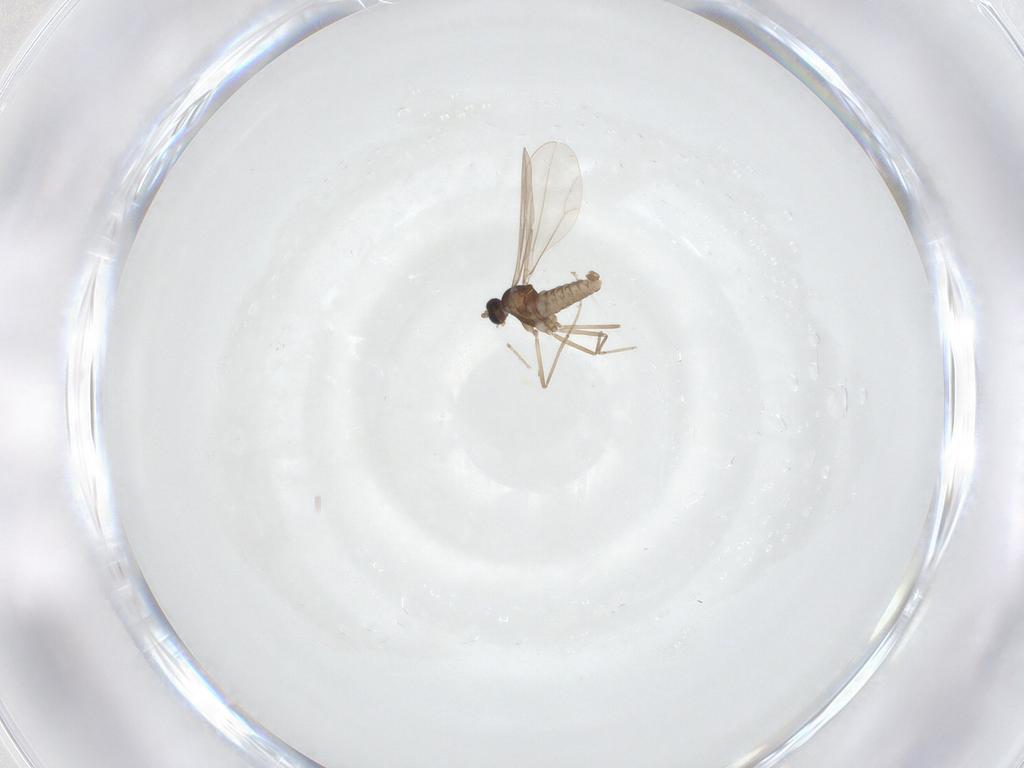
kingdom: Animalia
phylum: Arthropoda
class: Insecta
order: Diptera
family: Cecidomyiidae
